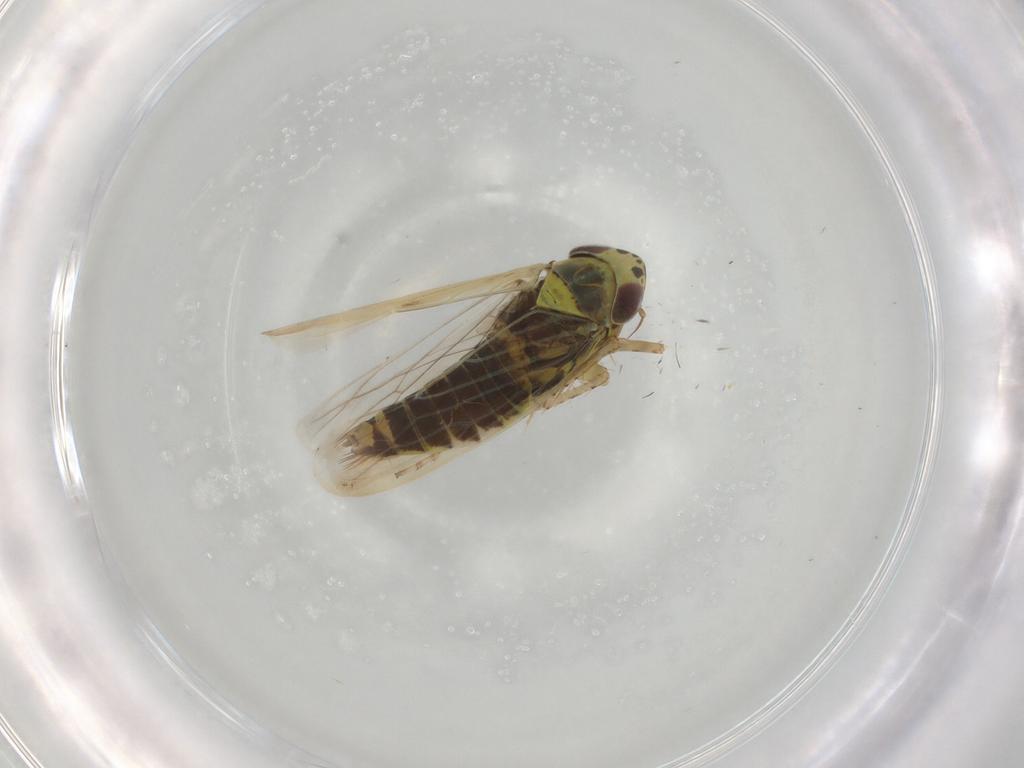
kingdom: Animalia
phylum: Arthropoda
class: Insecta
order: Hemiptera
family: Cicadellidae
